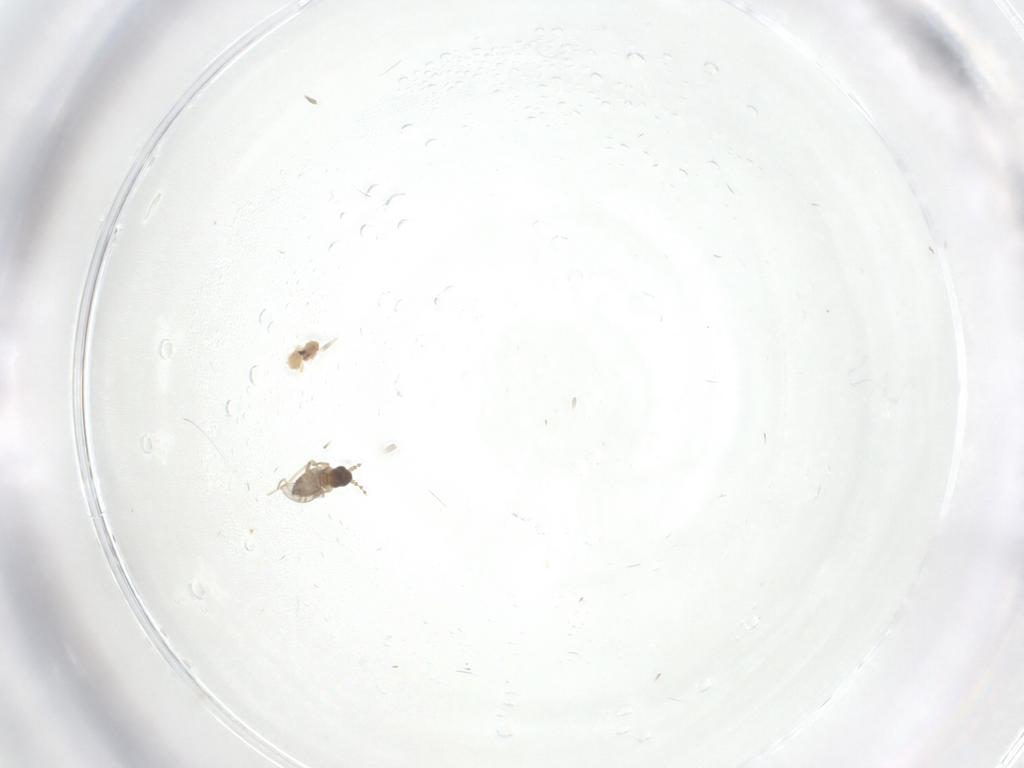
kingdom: Animalia
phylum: Arthropoda
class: Insecta
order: Diptera
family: Cecidomyiidae
